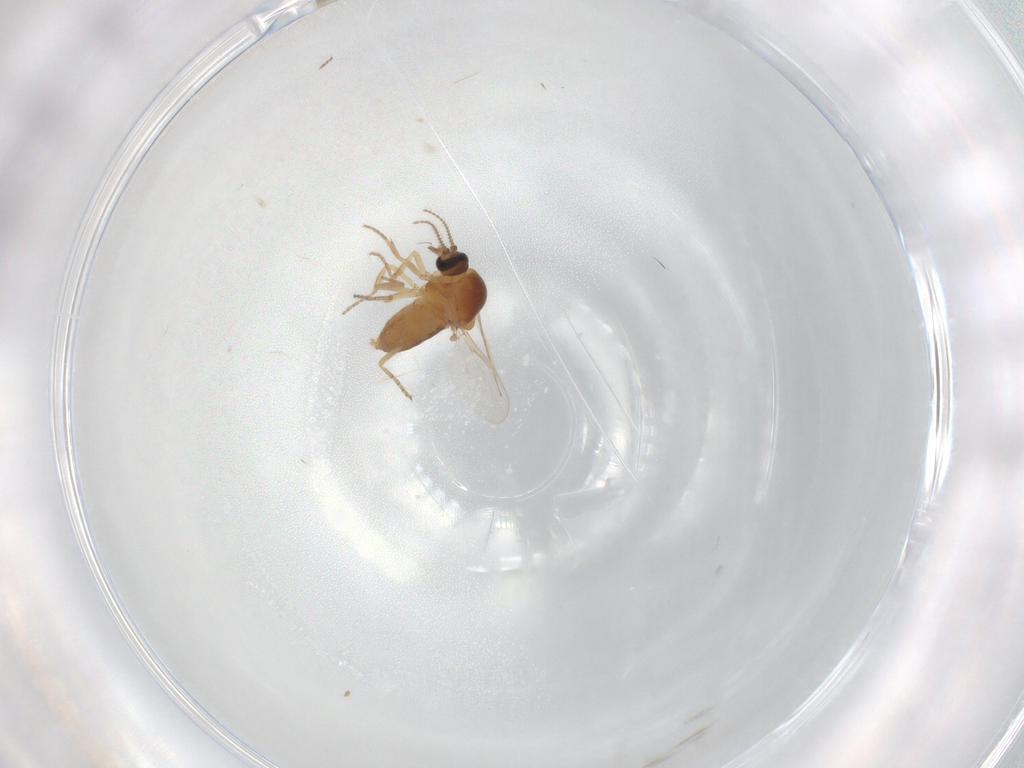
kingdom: Animalia
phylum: Arthropoda
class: Insecta
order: Diptera
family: Ceratopogonidae
